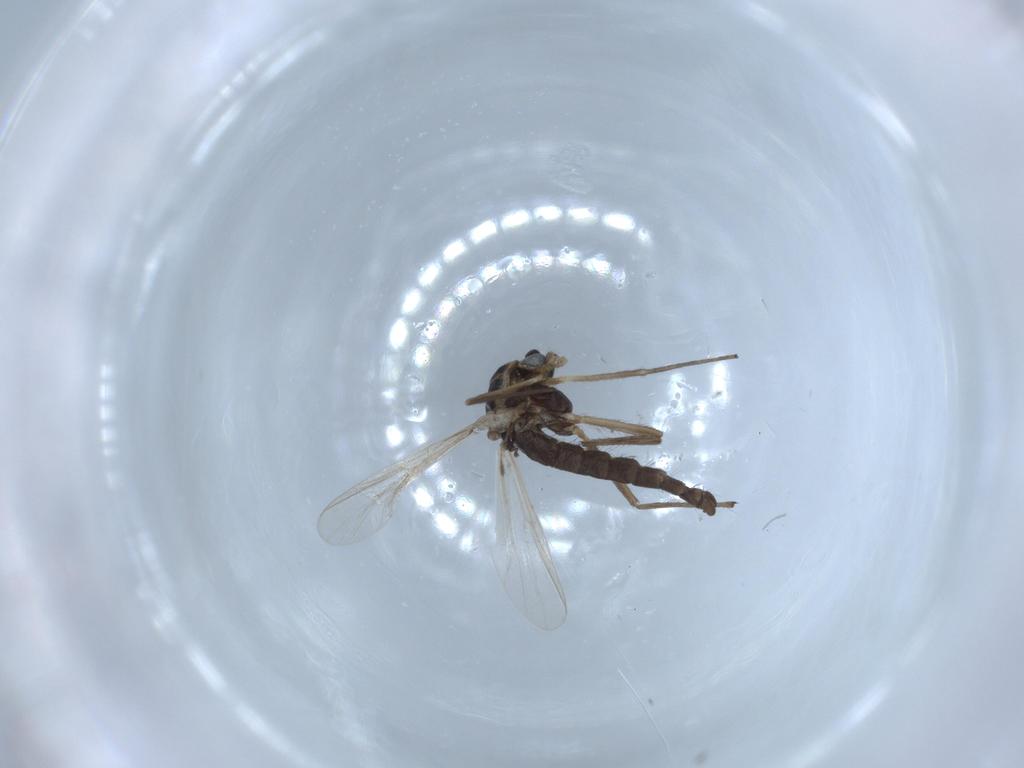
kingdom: Animalia
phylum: Arthropoda
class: Insecta
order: Diptera
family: Chironomidae
